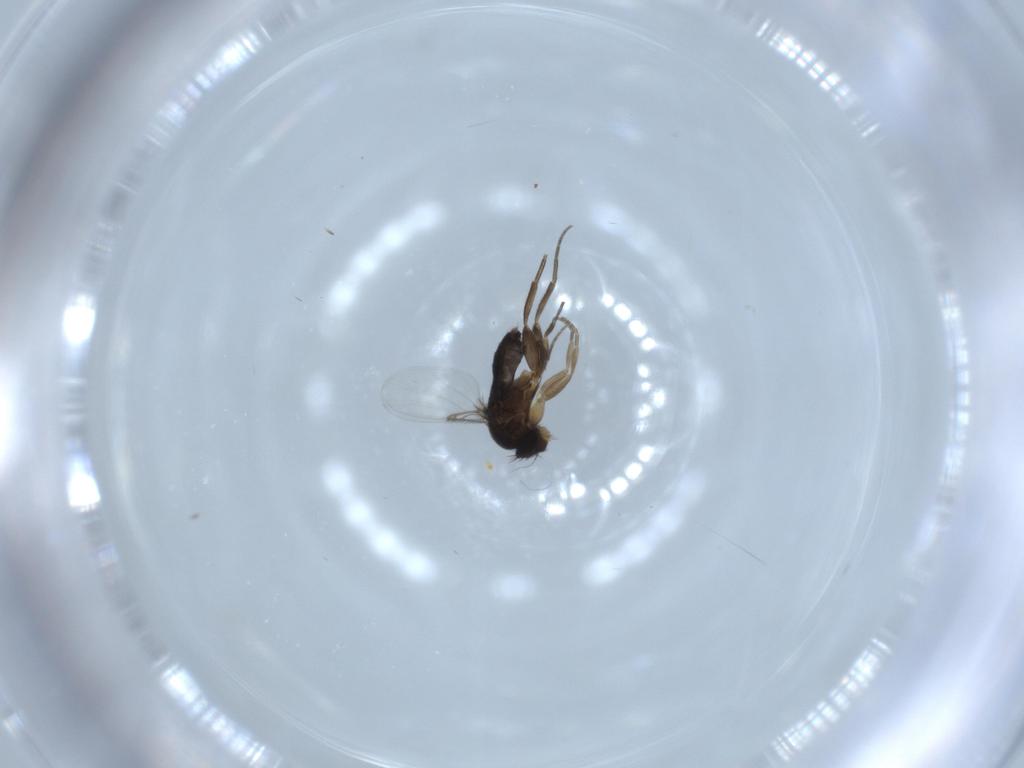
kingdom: Animalia
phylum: Arthropoda
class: Insecta
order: Diptera
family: Phoridae
